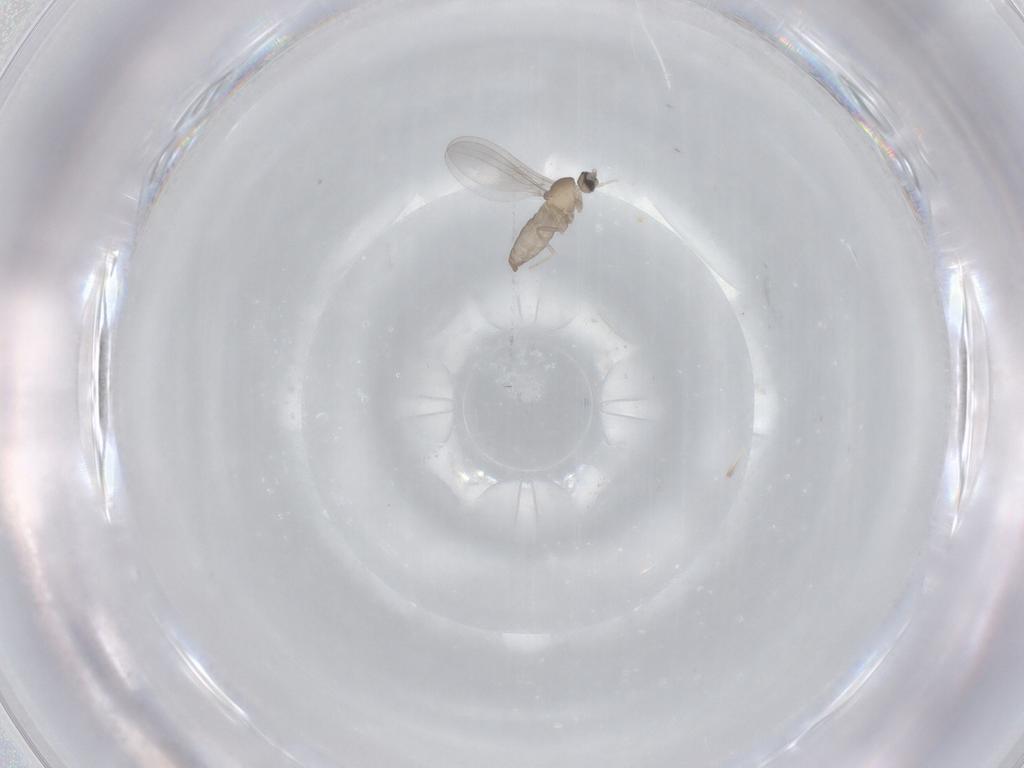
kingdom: Animalia
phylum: Arthropoda
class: Insecta
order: Diptera
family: Cecidomyiidae
